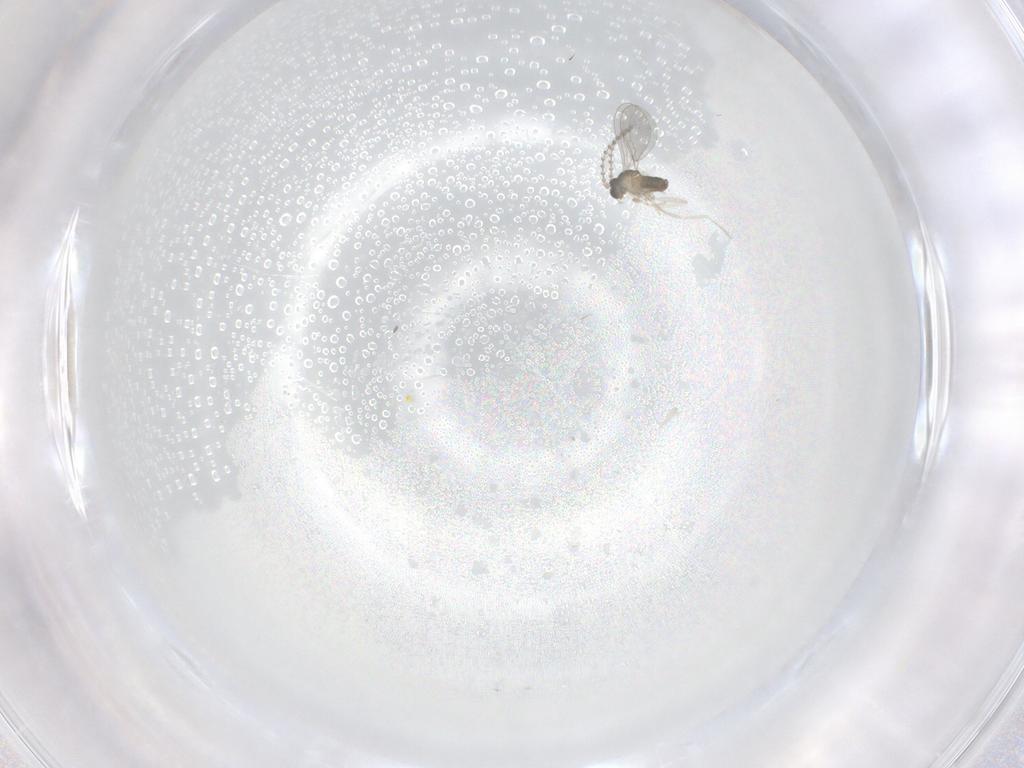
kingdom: Animalia
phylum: Arthropoda
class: Insecta
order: Diptera
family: Cecidomyiidae
